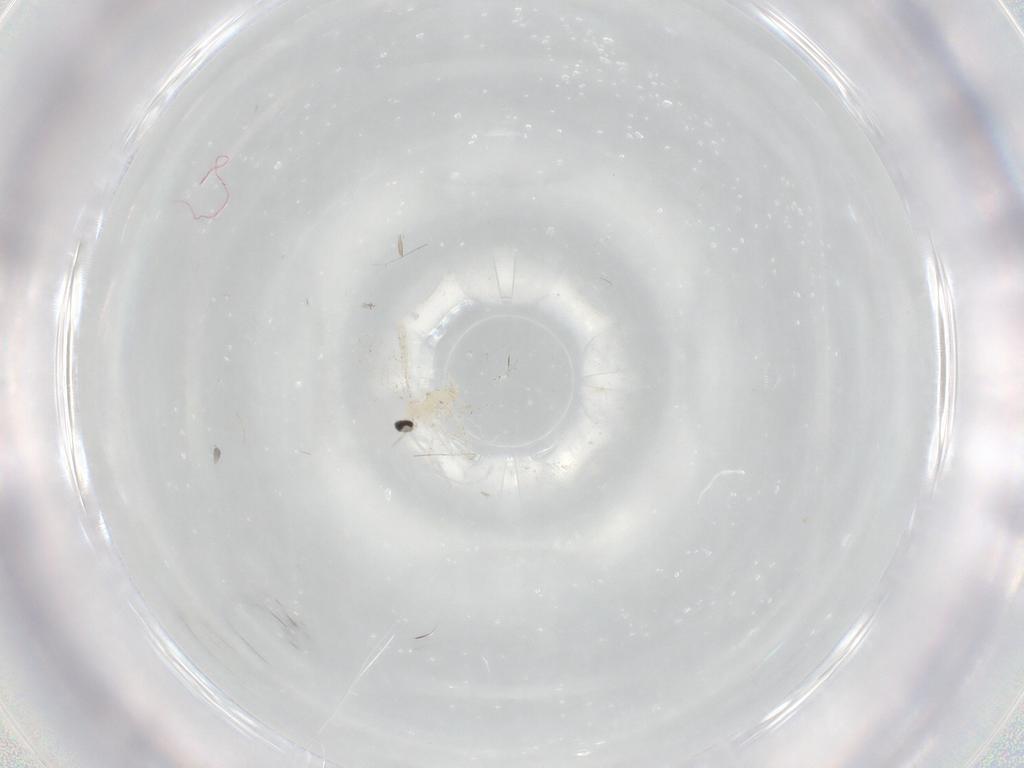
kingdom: Animalia
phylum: Arthropoda
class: Insecta
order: Diptera
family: Cecidomyiidae
